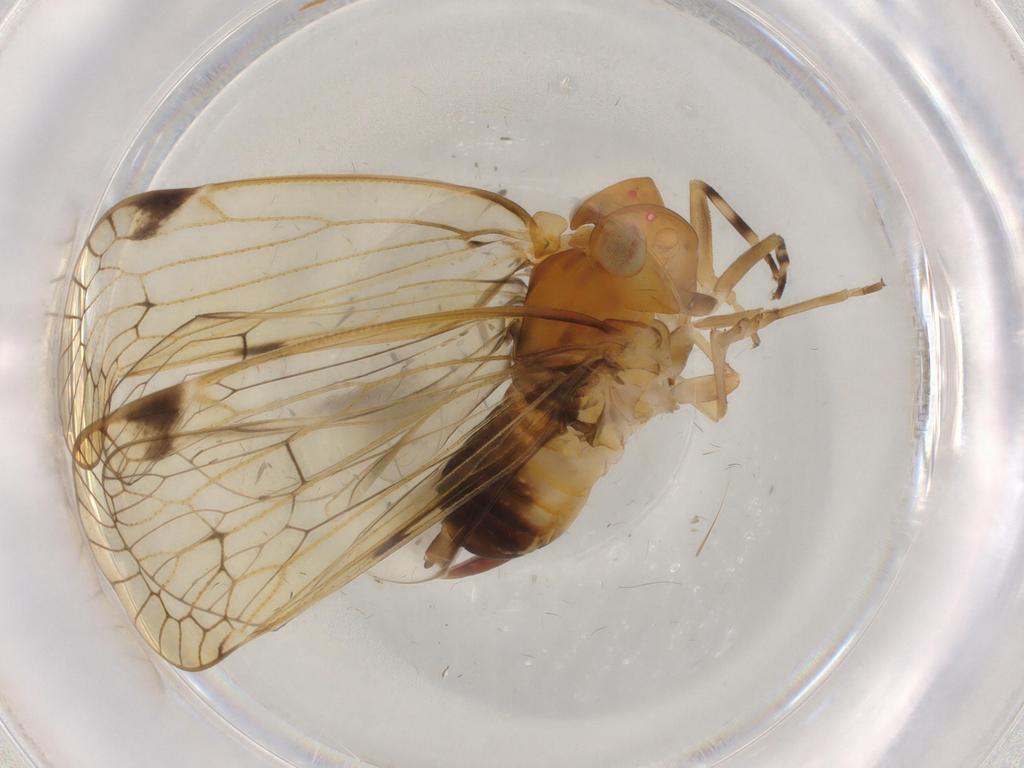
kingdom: Animalia
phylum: Arthropoda
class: Insecta
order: Hemiptera
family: Cixiidae
